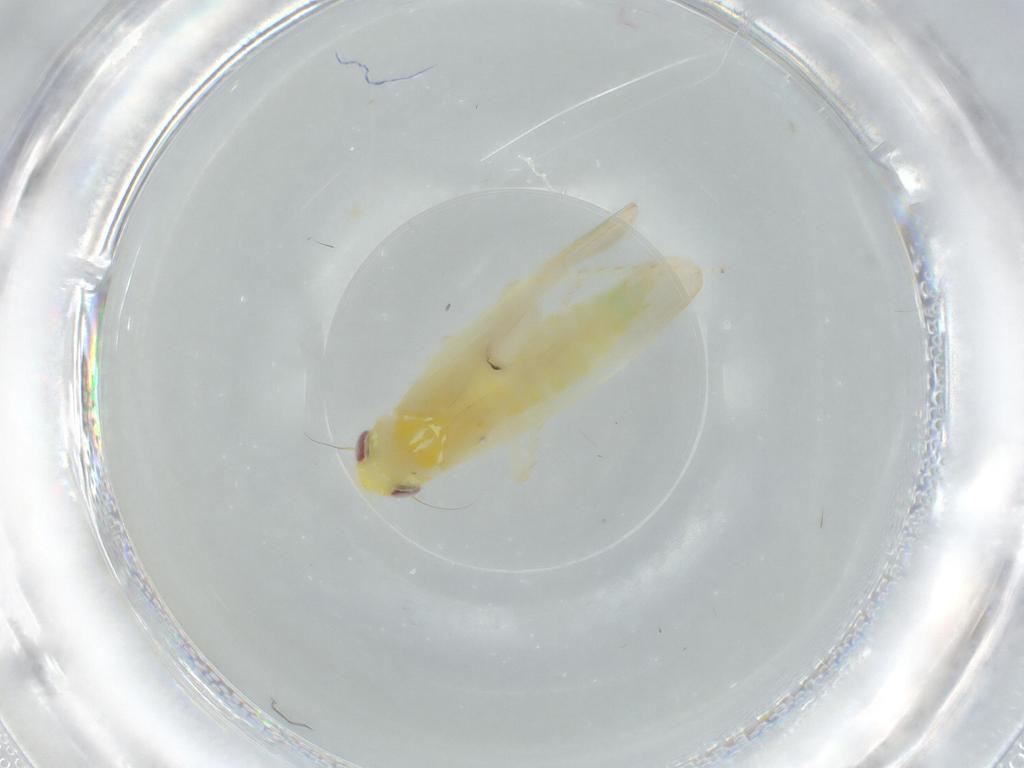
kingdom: Animalia
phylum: Arthropoda
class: Insecta
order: Hemiptera
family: Cicadellidae
